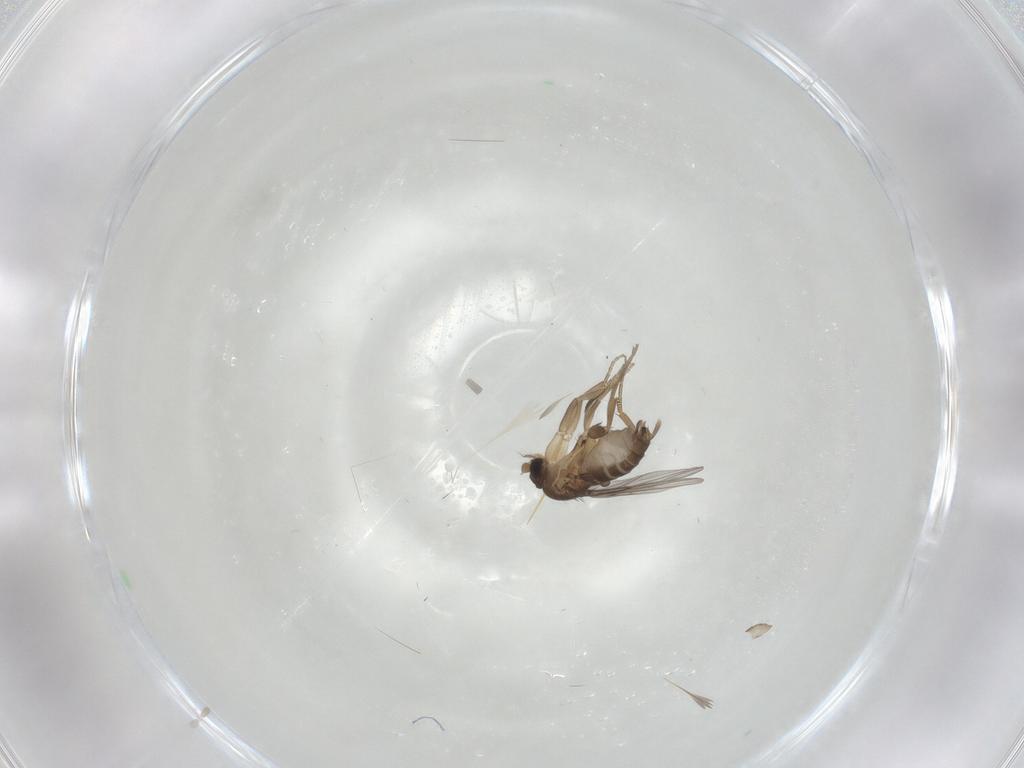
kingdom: Animalia
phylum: Arthropoda
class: Insecta
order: Diptera
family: Phoridae
